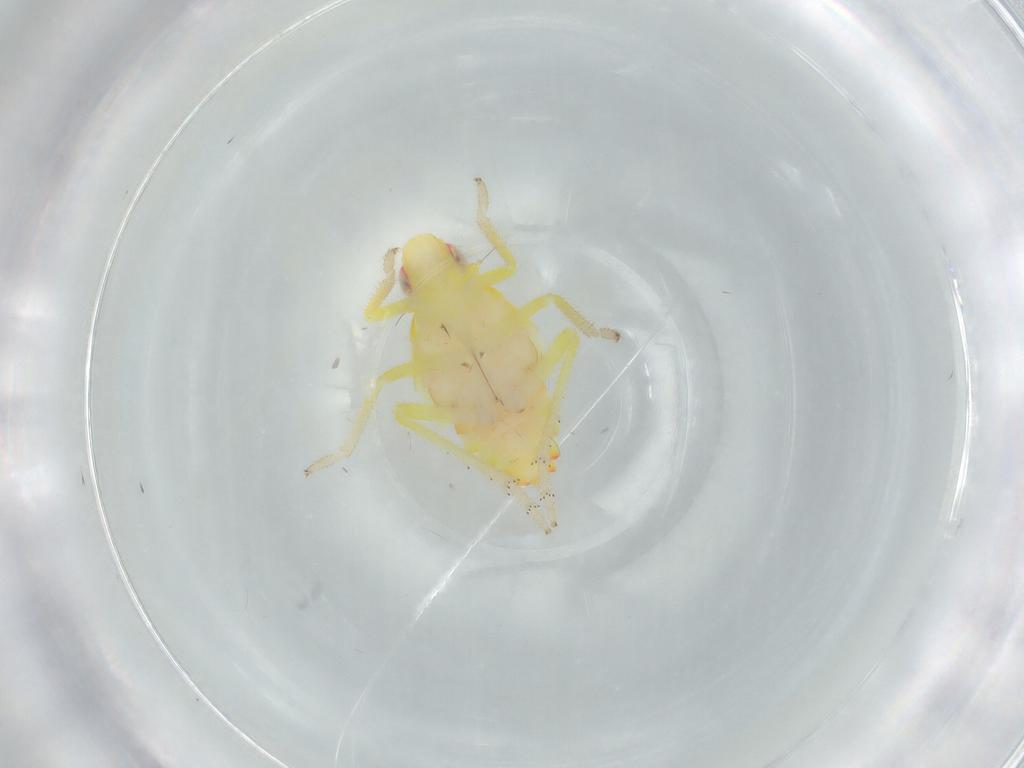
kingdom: Animalia
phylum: Arthropoda
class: Insecta
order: Hemiptera
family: Tropiduchidae
